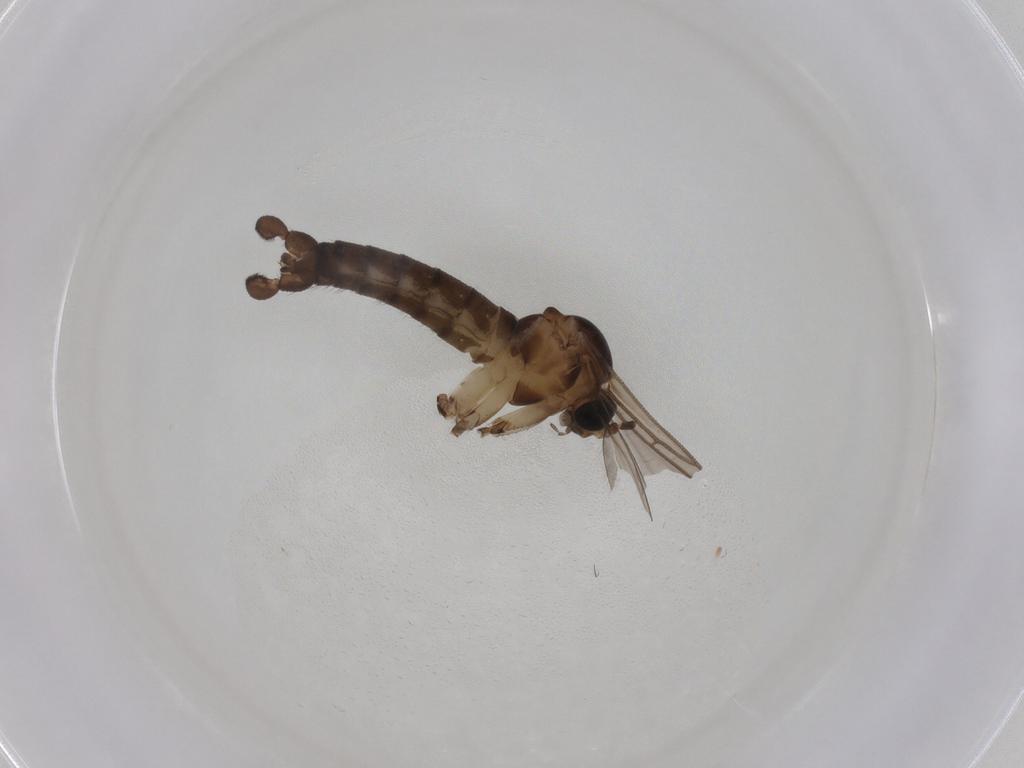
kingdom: Animalia
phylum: Arthropoda
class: Insecta
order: Diptera
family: Sciaridae
